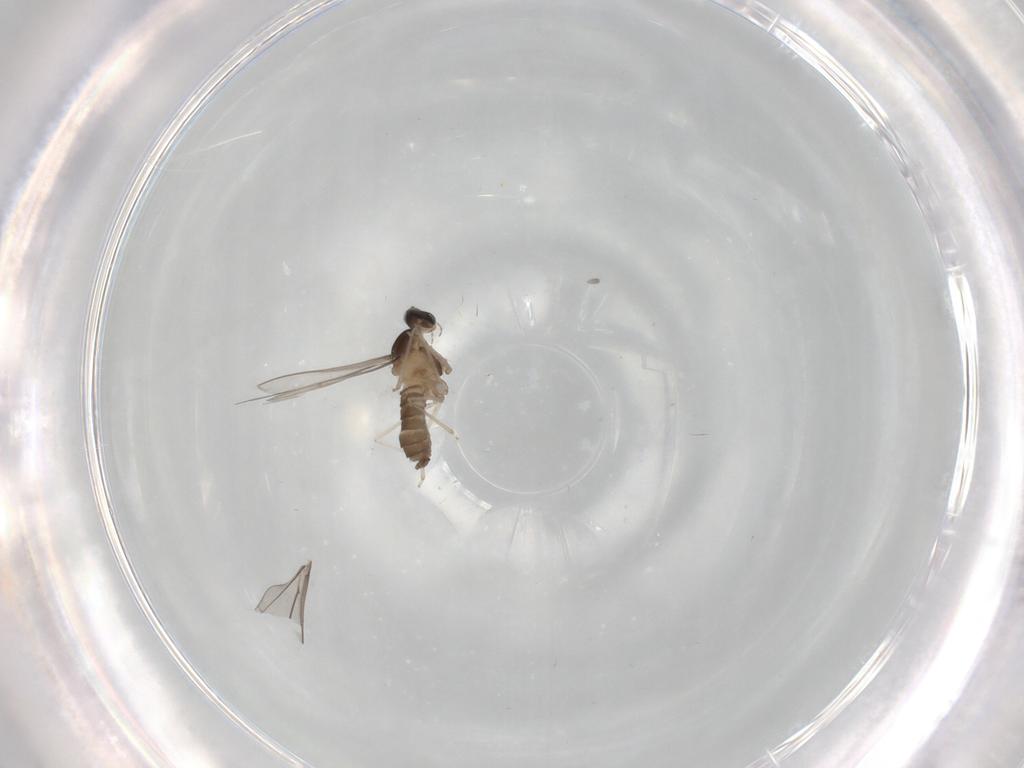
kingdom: Animalia
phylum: Arthropoda
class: Insecta
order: Diptera
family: Cecidomyiidae
